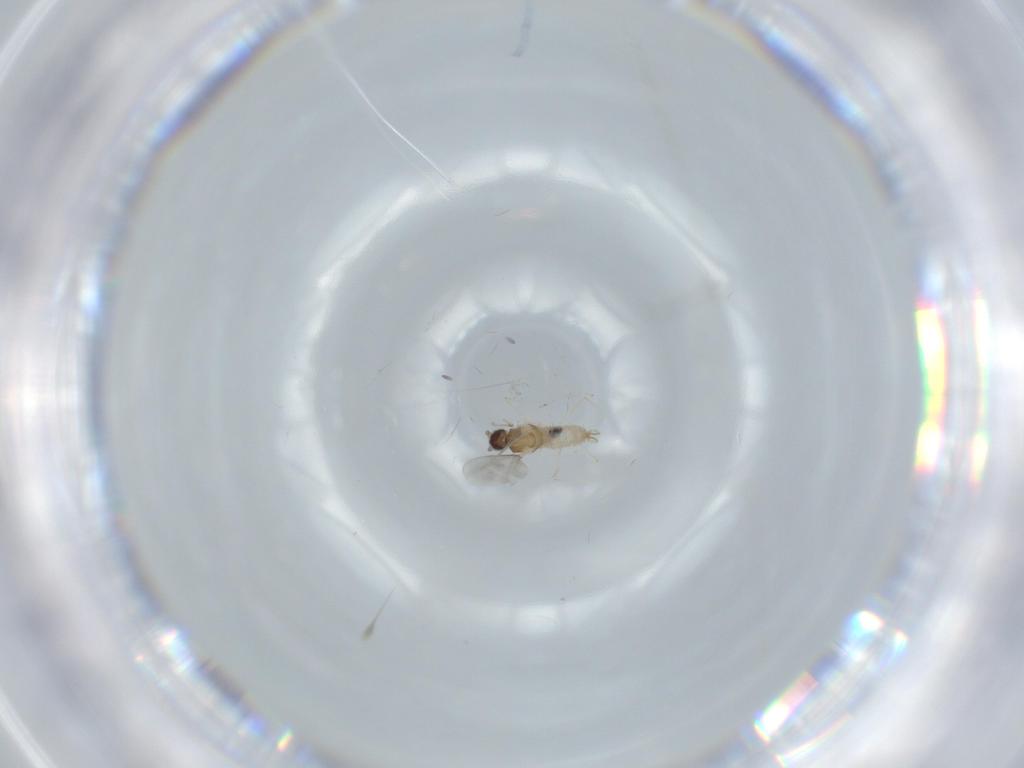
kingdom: Animalia
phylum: Arthropoda
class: Insecta
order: Diptera
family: Cecidomyiidae
